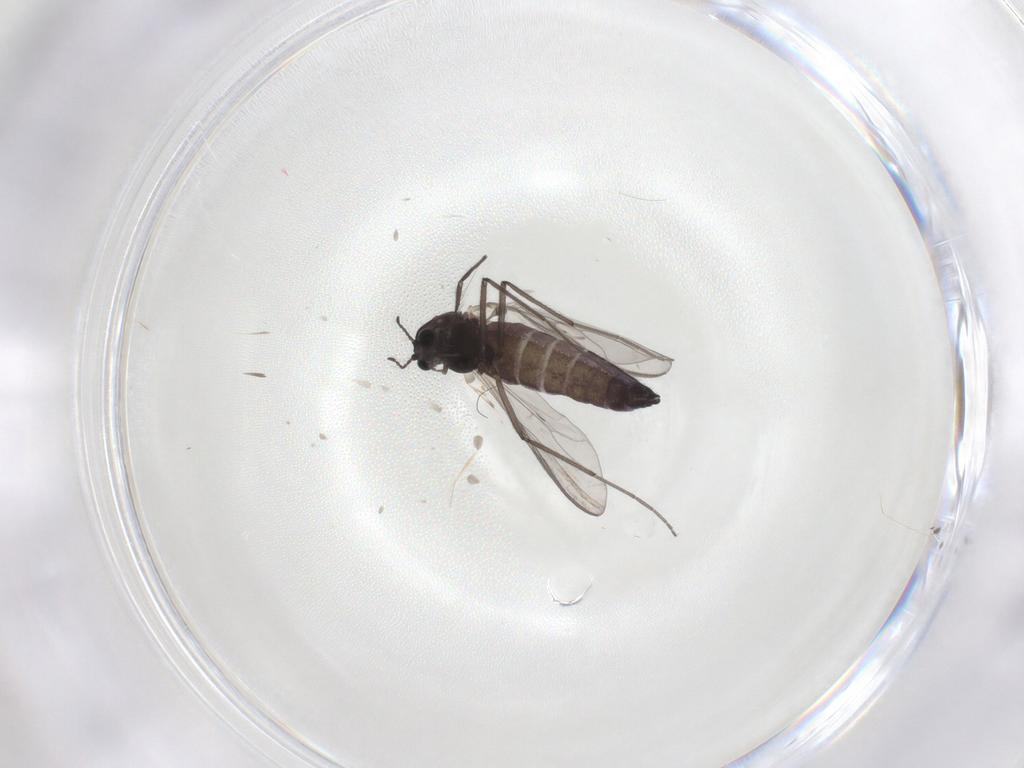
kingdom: Animalia
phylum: Arthropoda
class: Insecta
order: Diptera
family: Chironomidae
